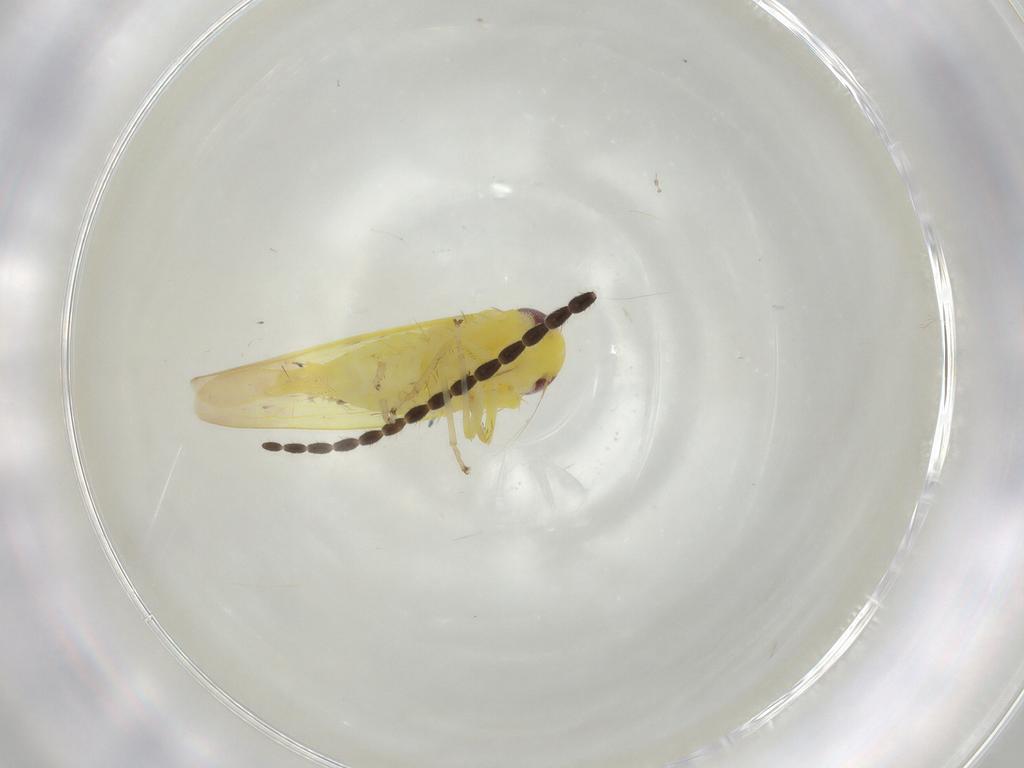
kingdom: Animalia
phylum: Arthropoda
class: Insecta
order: Hemiptera
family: Cicadellidae
